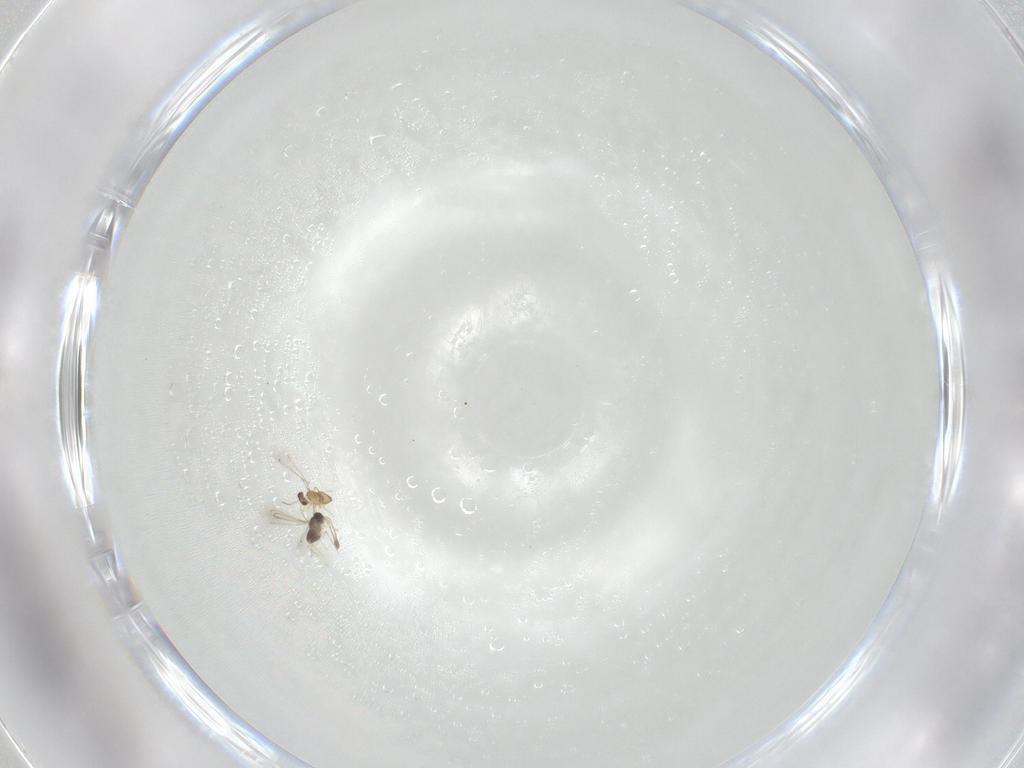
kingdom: Animalia
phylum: Arthropoda
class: Insecta
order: Hymenoptera
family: Mymaridae
